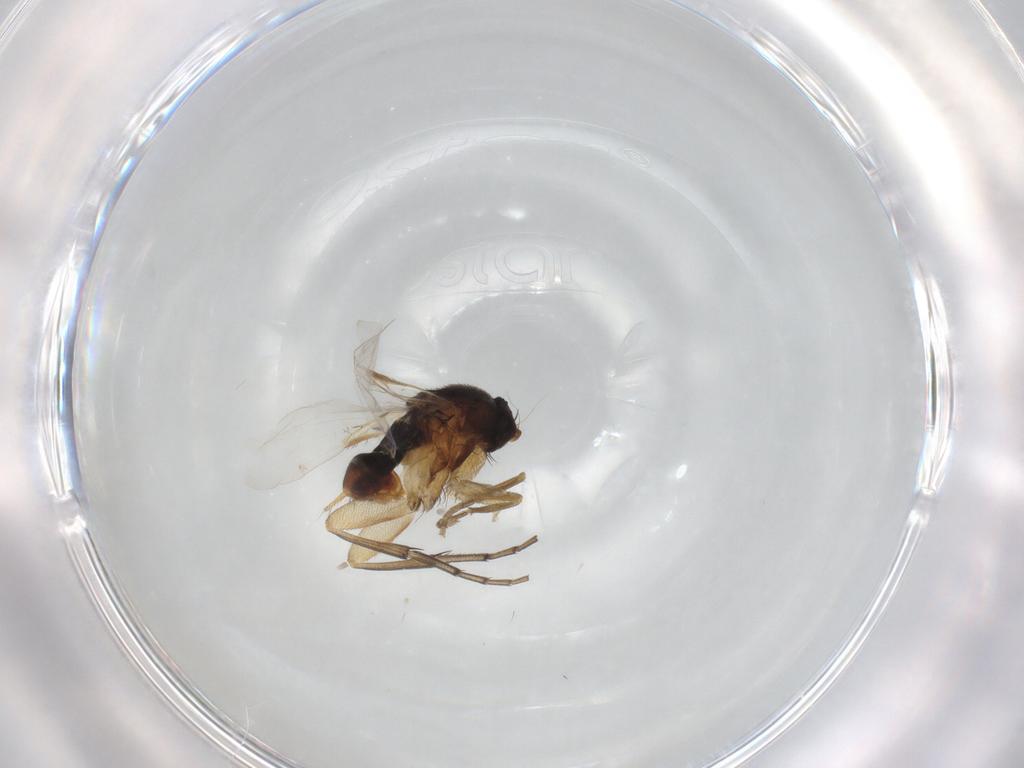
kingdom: Animalia
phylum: Arthropoda
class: Insecta
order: Diptera
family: Phoridae
